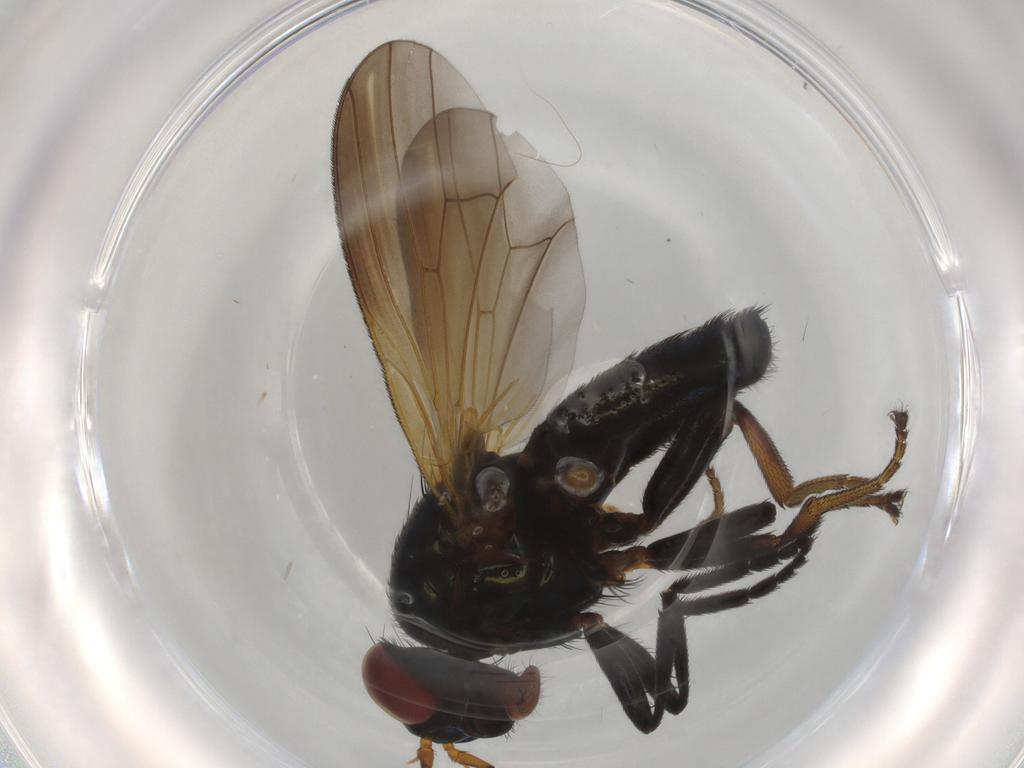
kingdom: Animalia
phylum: Arthropoda
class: Insecta
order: Diptera
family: Lauxaniidae
